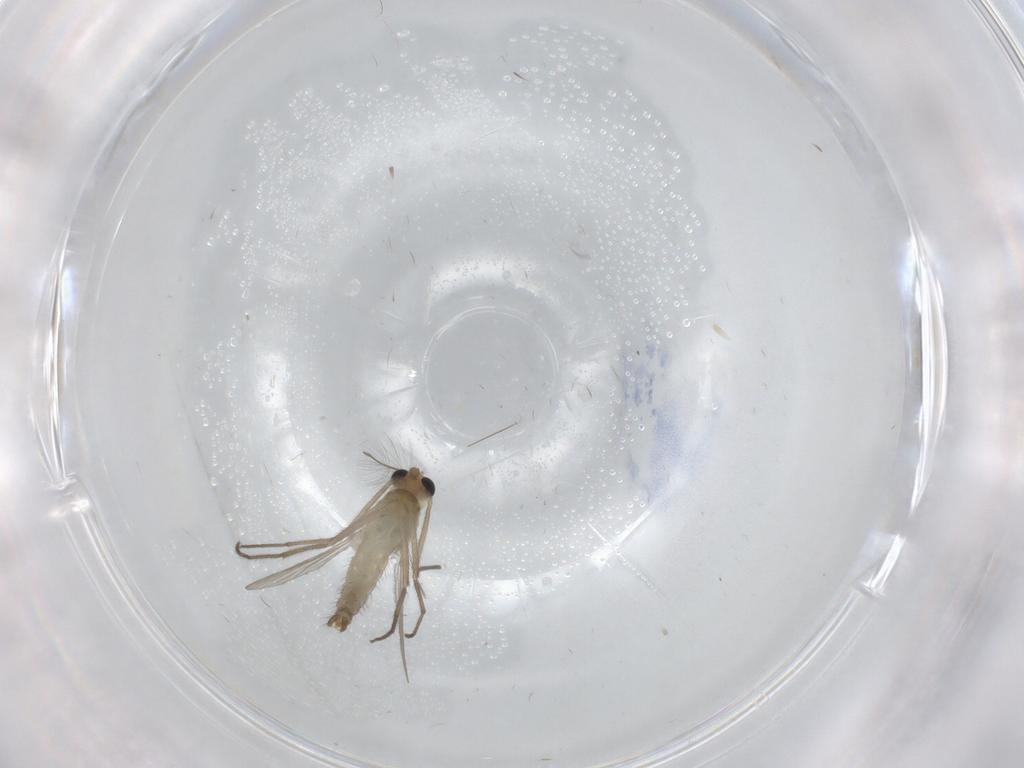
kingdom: Animalia
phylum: Arthropoda
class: Insecta
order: Diptera
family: Chironomidae
